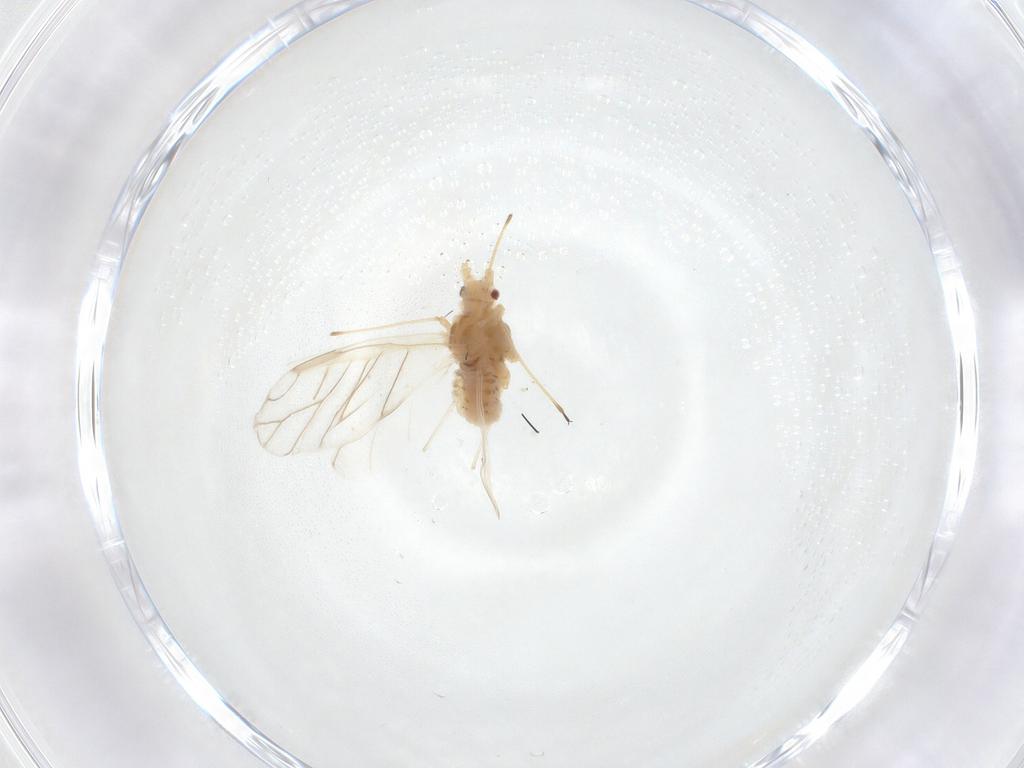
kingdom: Animalia
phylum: Arthropoda
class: Insecta
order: Hemiptera
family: Aphididae
